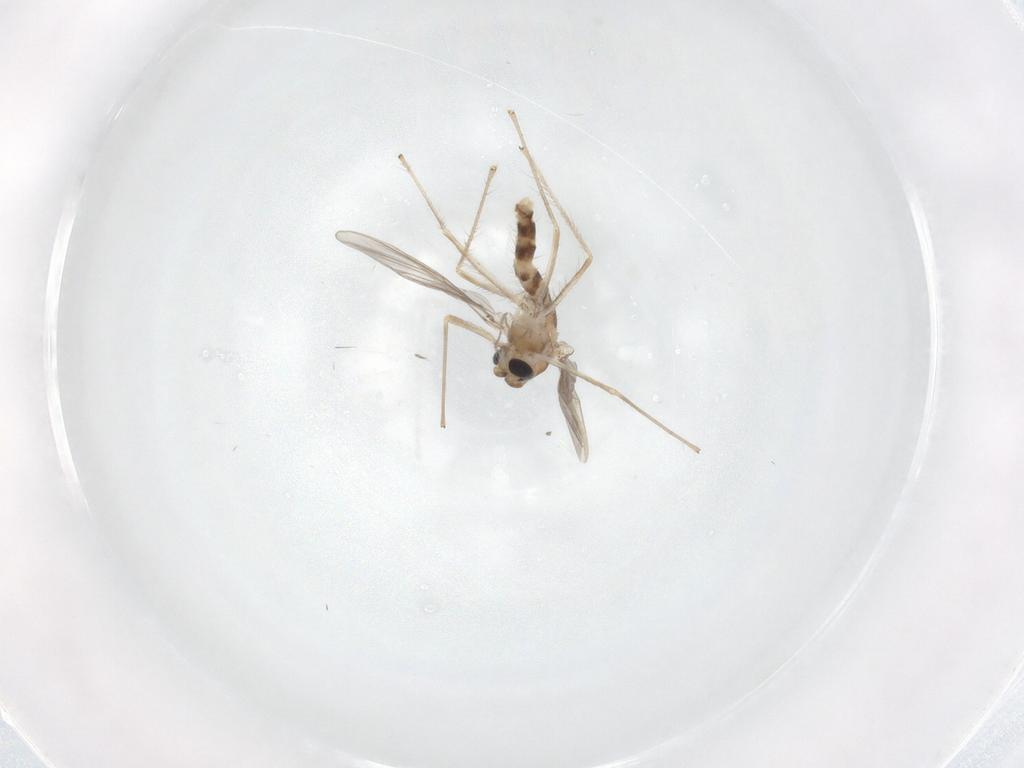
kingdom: Animalia
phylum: Arthropoda
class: Insecta
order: Diptera
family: Chironomidae
